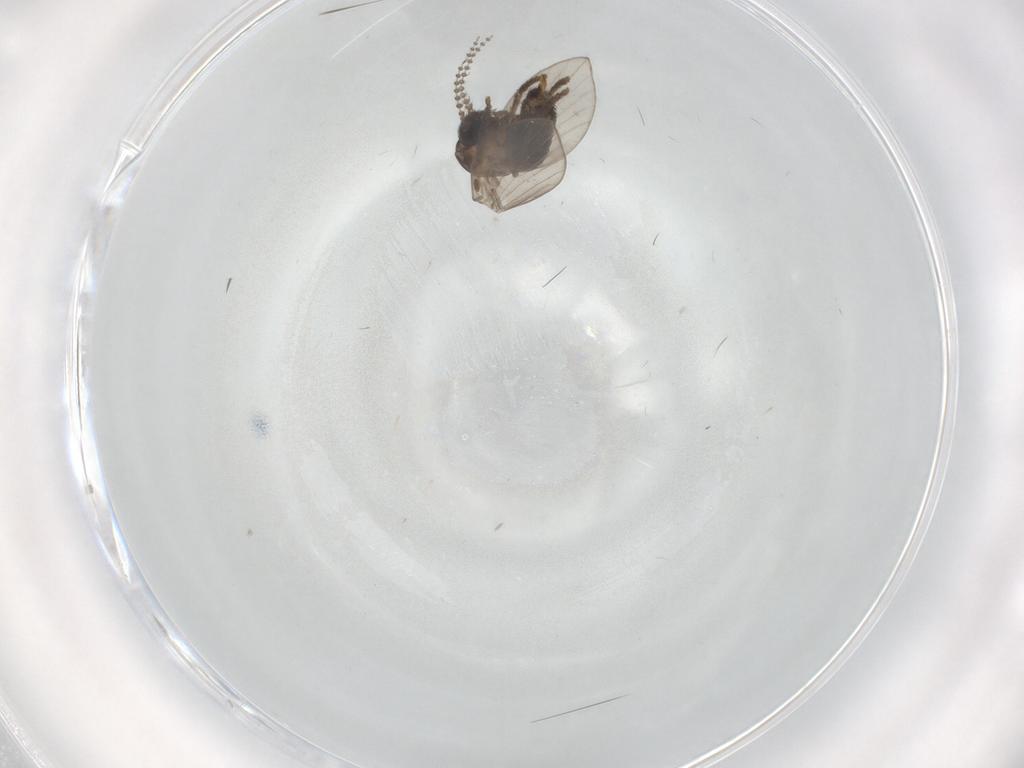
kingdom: Animalia
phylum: Arthropoda
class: Insecta
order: Diptera
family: Psychodidae
